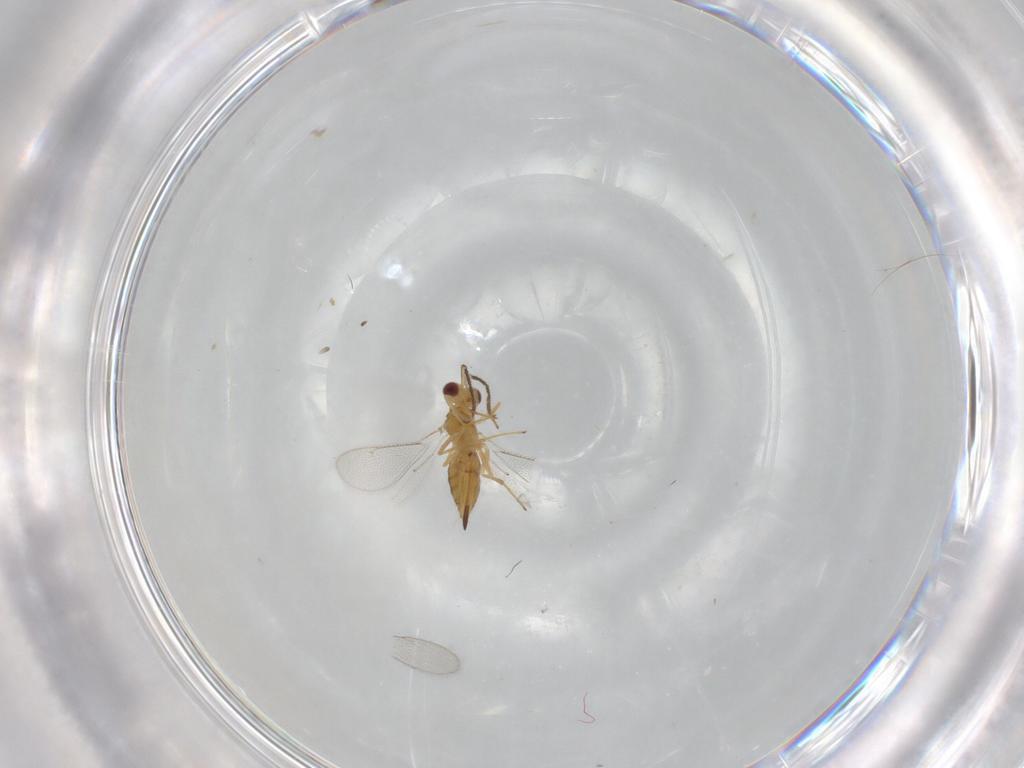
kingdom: Animalia
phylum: Arthropoda
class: Insecta
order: Hymenoptera
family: Eulophidae
